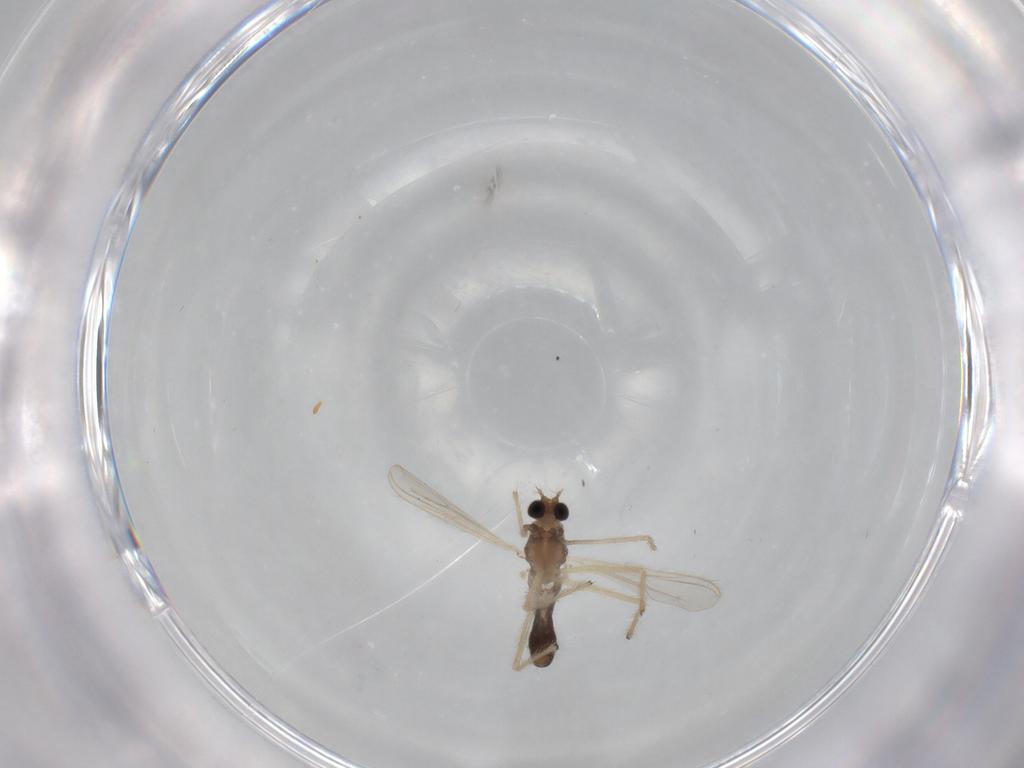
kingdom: Animalia
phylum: Arthropoda
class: Insecta
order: Diptera
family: Chironomidae
